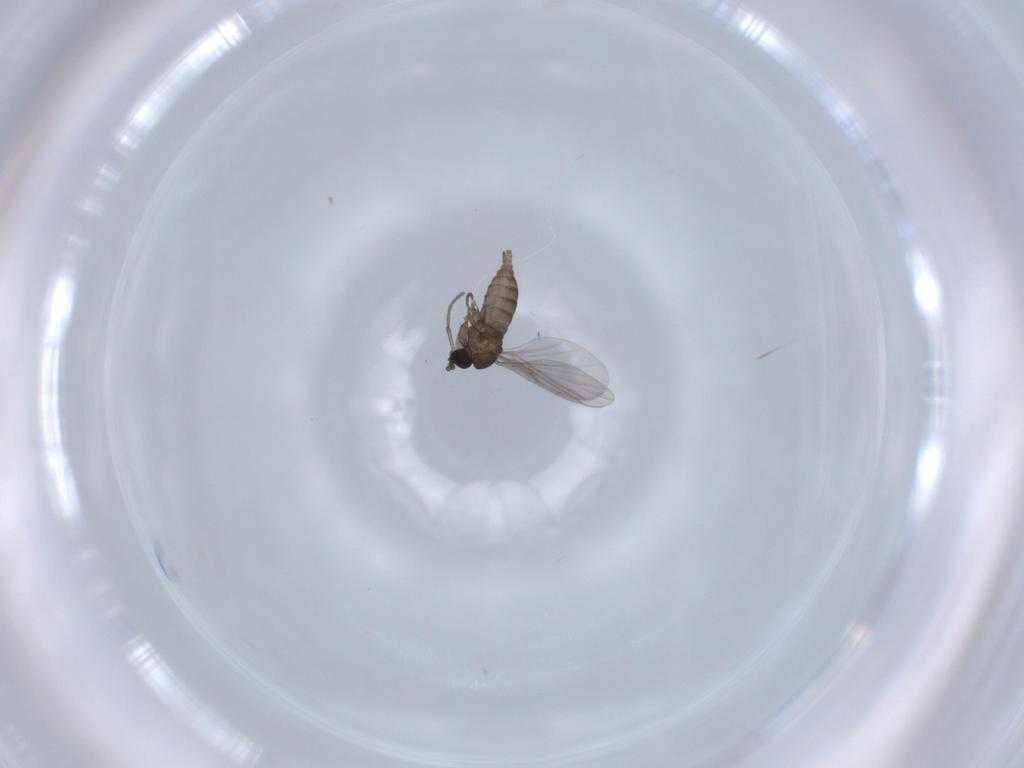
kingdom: Animalia
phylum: Arthropoda
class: Insecta
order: Diptera
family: Sciaridae
